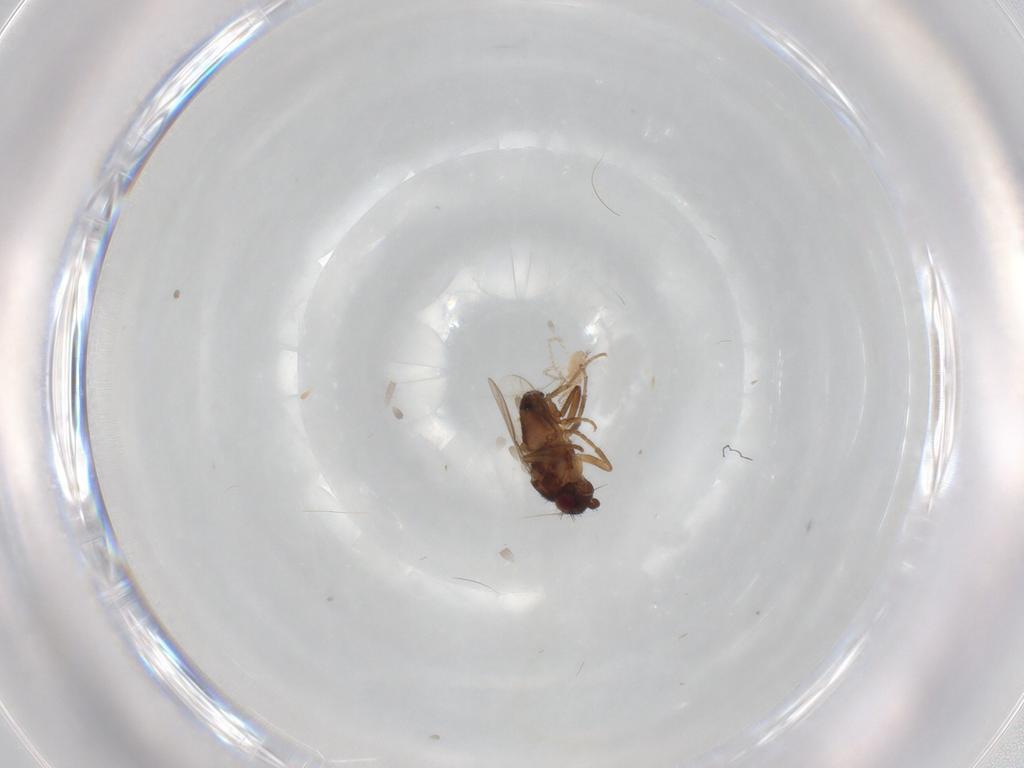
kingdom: Animalia
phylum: Arthropoda
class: Insecta
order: Diptera
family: Sphaeroceridae
